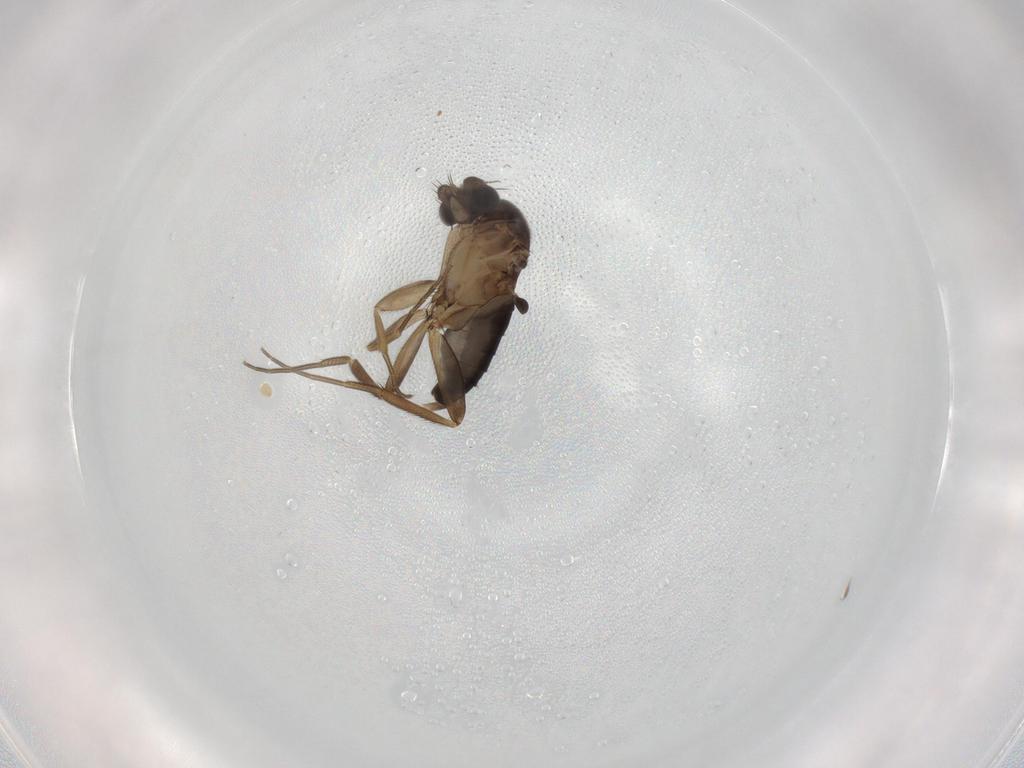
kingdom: Animalia
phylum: Arthropoda
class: Insecta
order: Diptera
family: Phoridae
